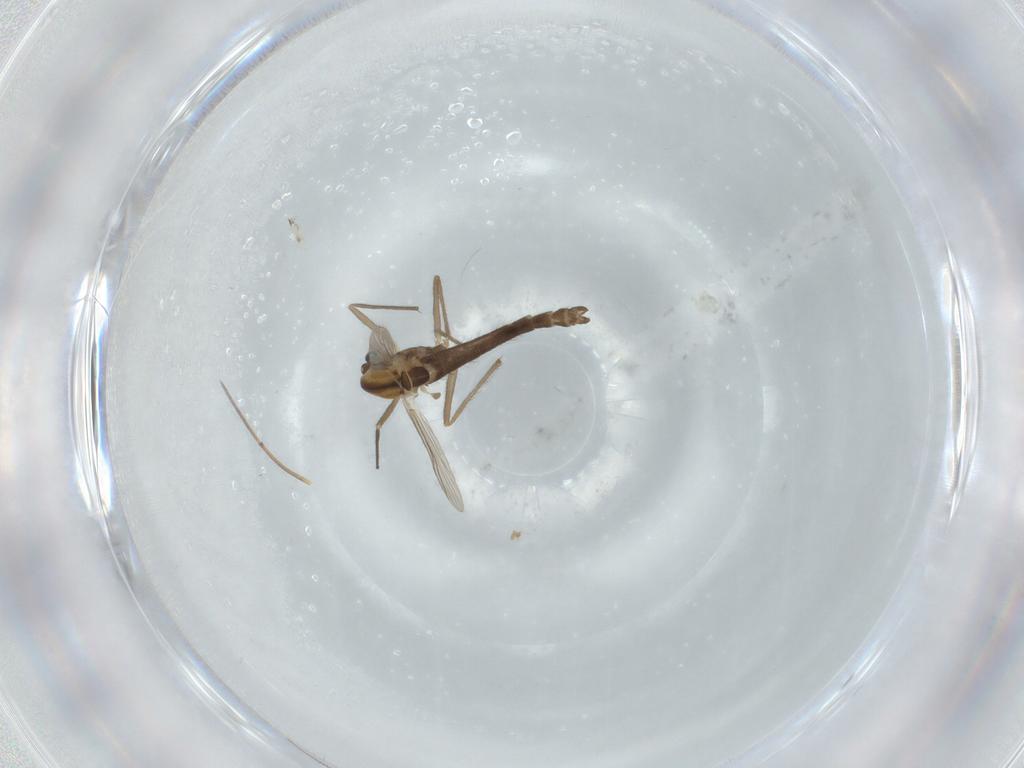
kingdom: Animalia
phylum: Arthropoda
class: Insecta
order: Diptera
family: Chironomidae
